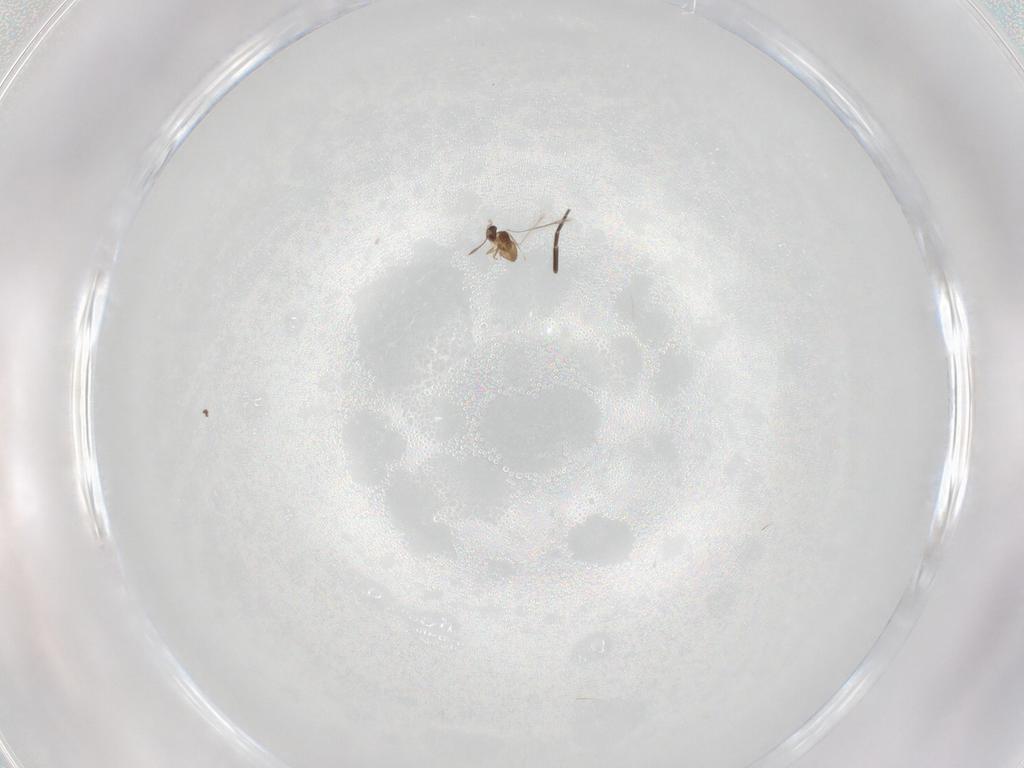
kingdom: Animalia
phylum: Arthropoda
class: Insecta
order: Hymenoptera
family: Mymaridae
